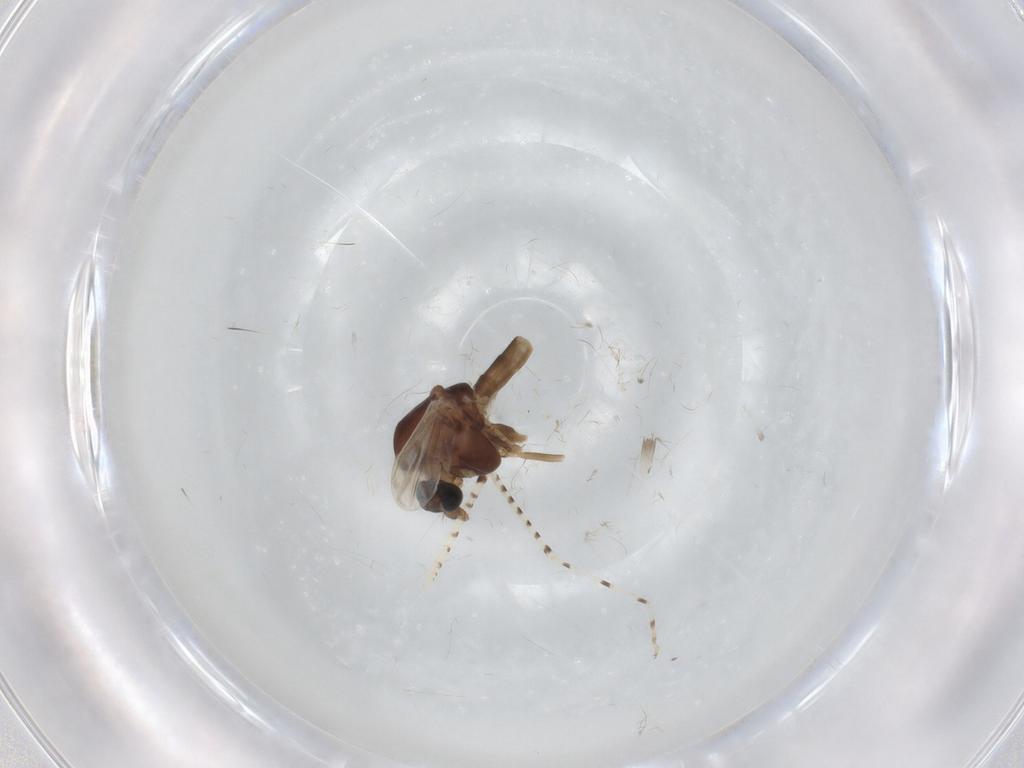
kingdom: Animalia
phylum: Arthropoda
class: Insecta
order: Diptera
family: Chironomidae
